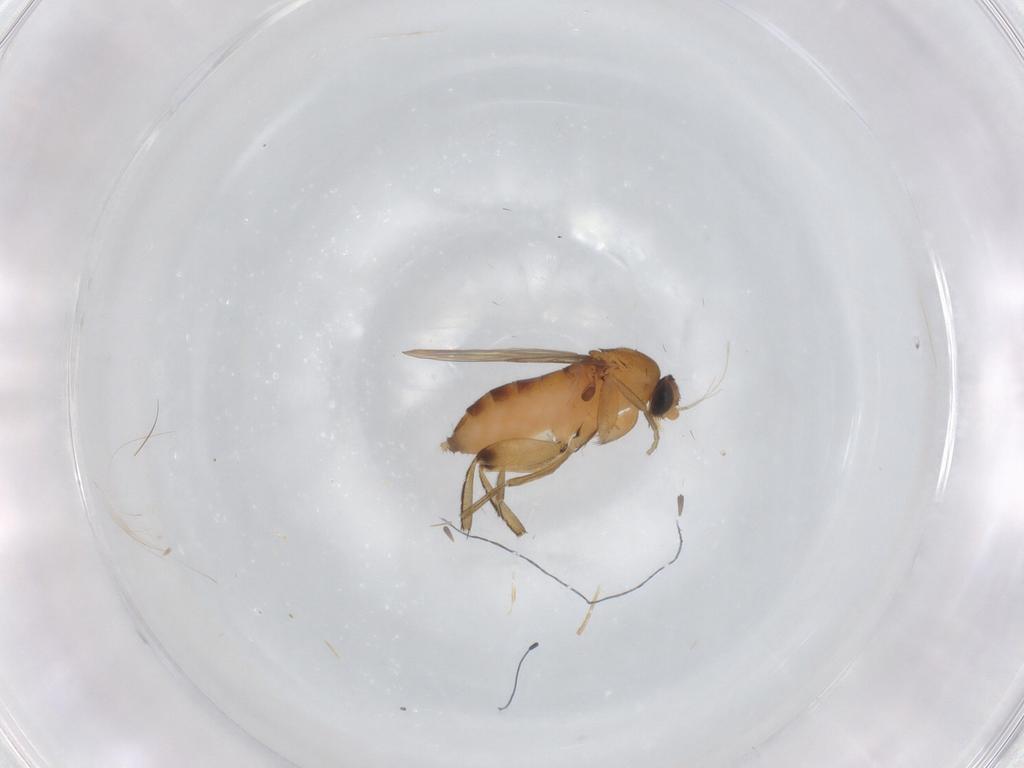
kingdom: Animalia
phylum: Arthropoda
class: Insecta
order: Diptera
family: Phoridae
